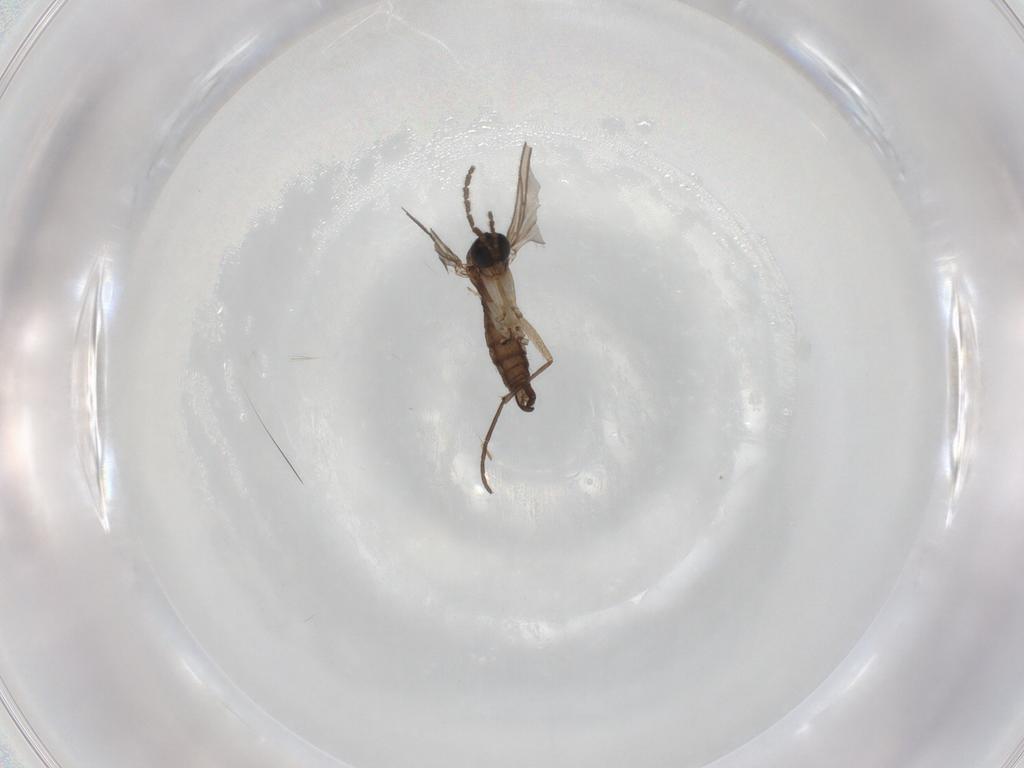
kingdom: Animalia
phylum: Arthropoda
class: Insecta
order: Diptera
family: Sciaridae
